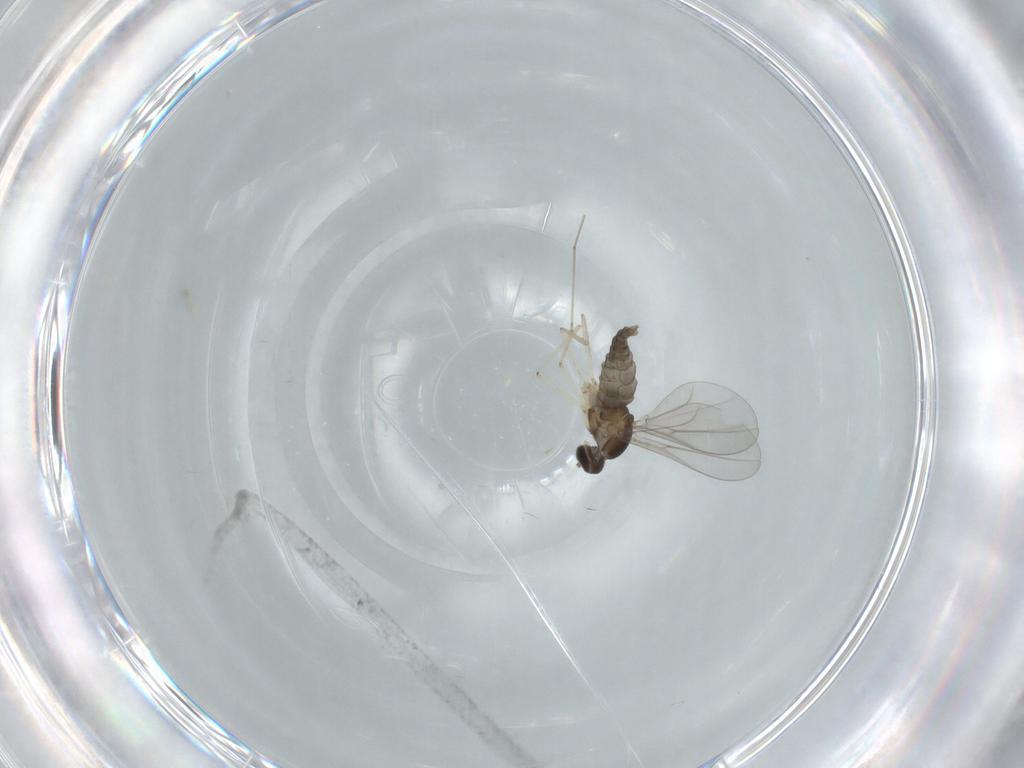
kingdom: Animalia
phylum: Arthropoda
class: Insecta
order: Diptera
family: Cecidomyiidae
